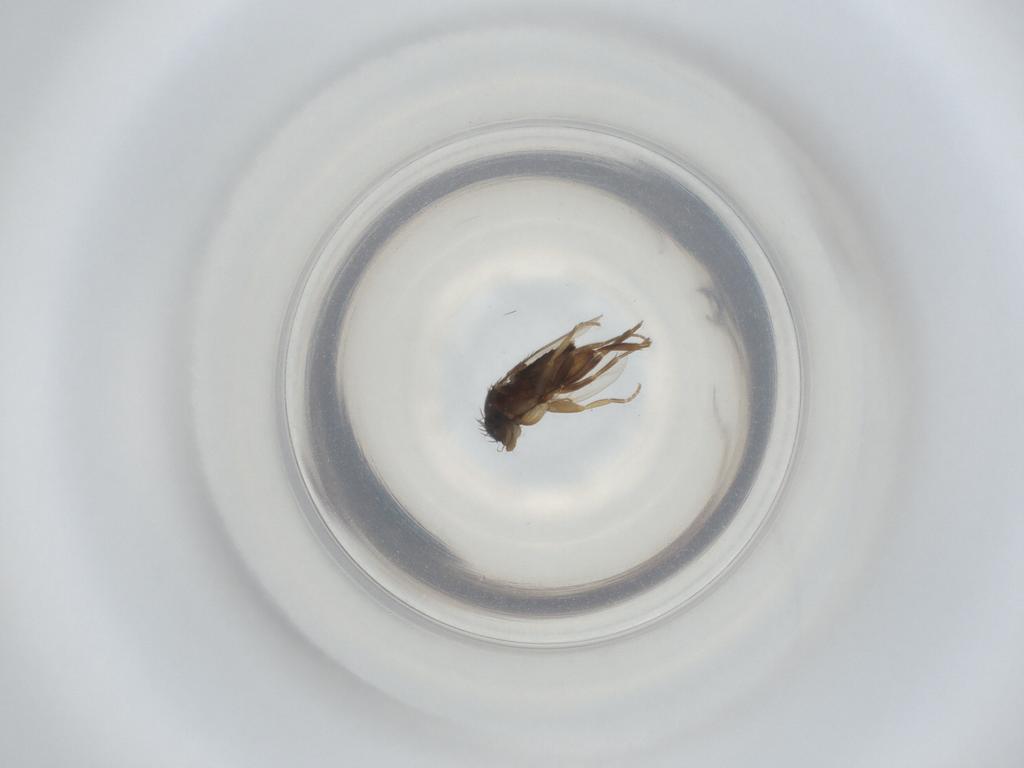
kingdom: Animalia
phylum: Arthropoda
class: Insecta
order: Diptera
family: Phoridae
